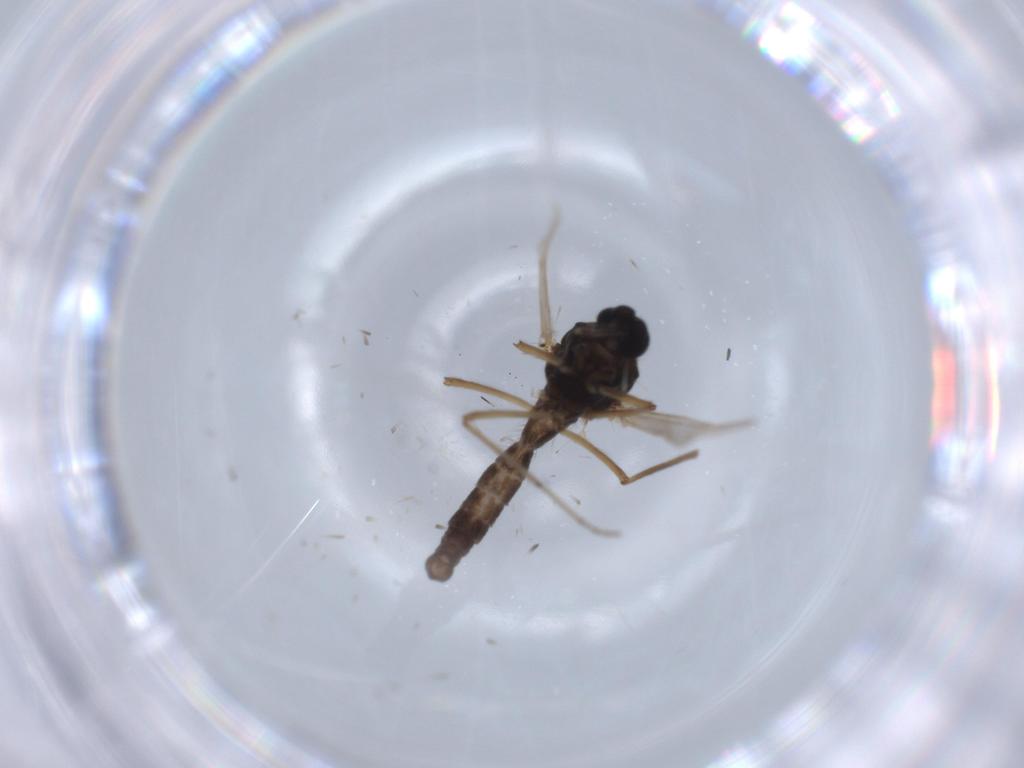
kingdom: Animalia
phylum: Arthropoda
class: Insecta
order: Diptera
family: Ceratopogonidae
